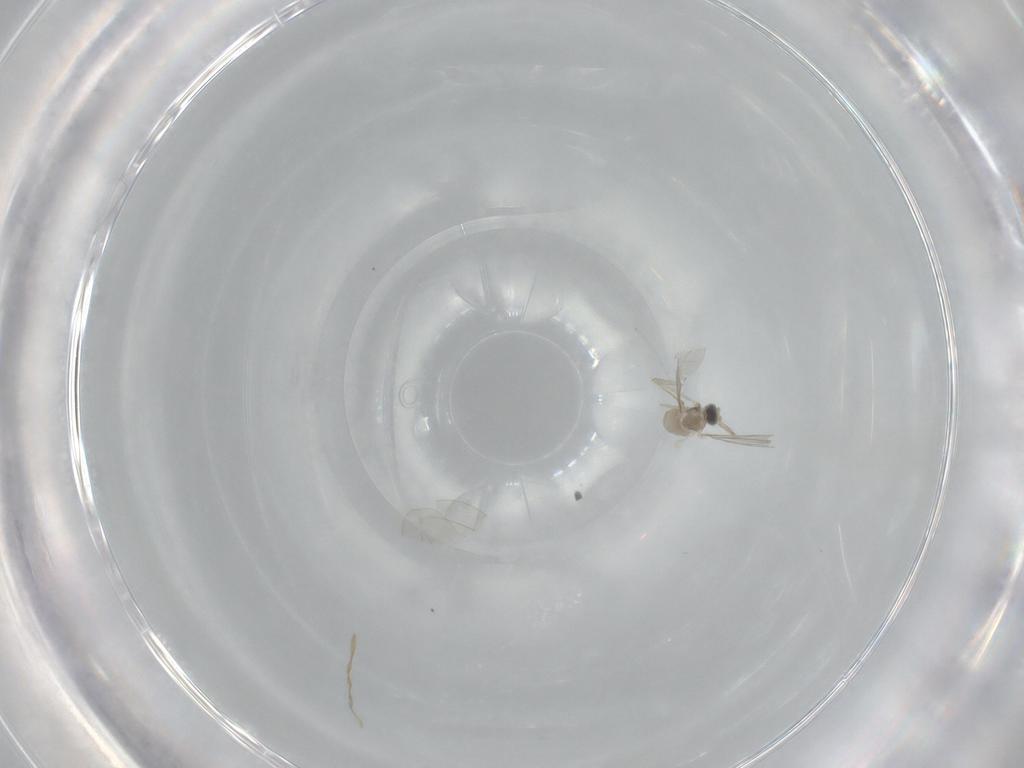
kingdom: Animalia
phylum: Arthropoda
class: Insecta
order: Diptera
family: Cecidomyiidae
